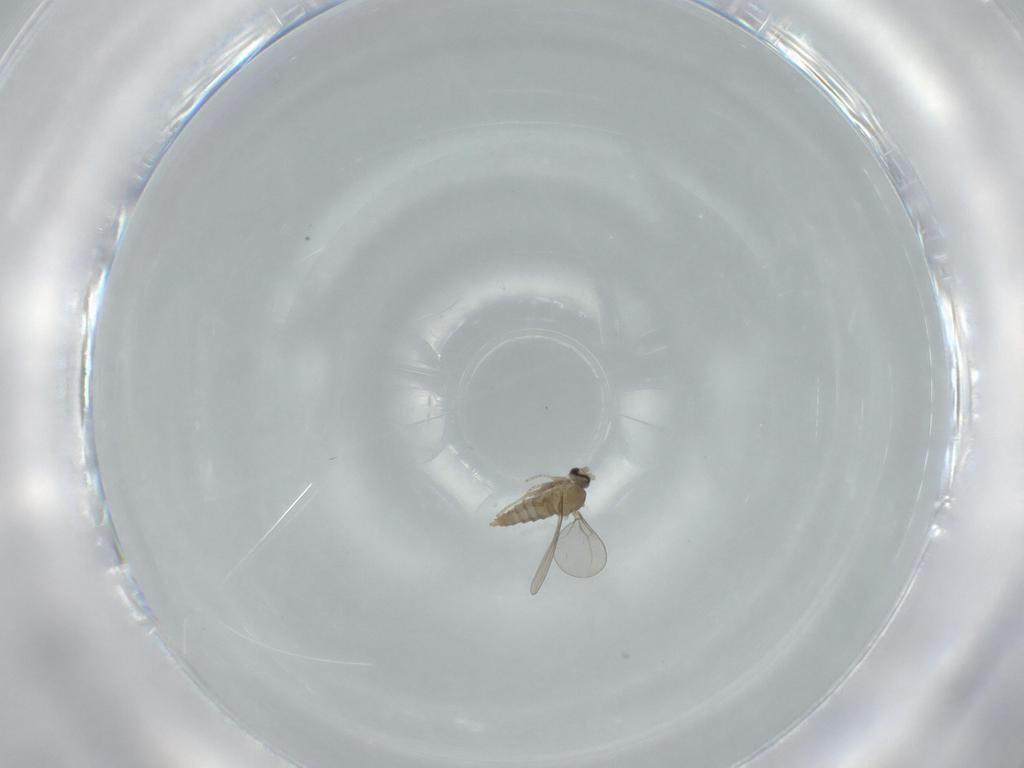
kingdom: Animalia
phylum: Arthropoda
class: Insecta
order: Diptera
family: Cecidomyiidae
